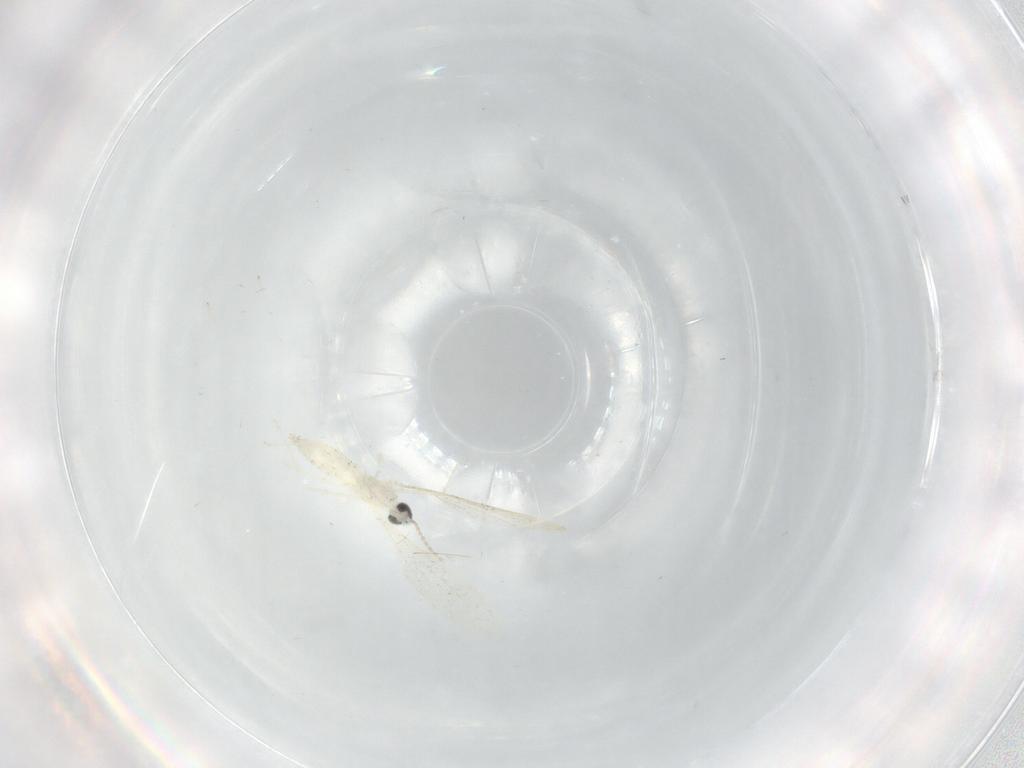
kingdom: Animalia
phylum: Arthropoda
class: Insecta
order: Diptera
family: Cecidomyiidae
